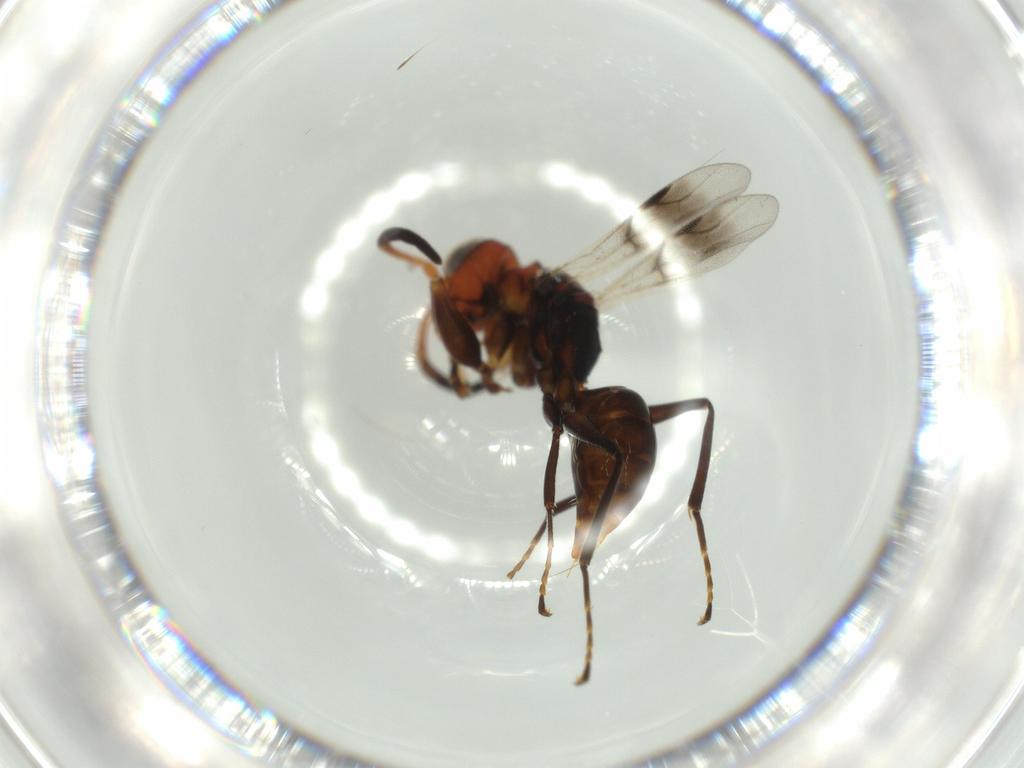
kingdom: Animalia
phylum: Arthropoda
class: Insecta
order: Hymenoptera
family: Dryinidae
